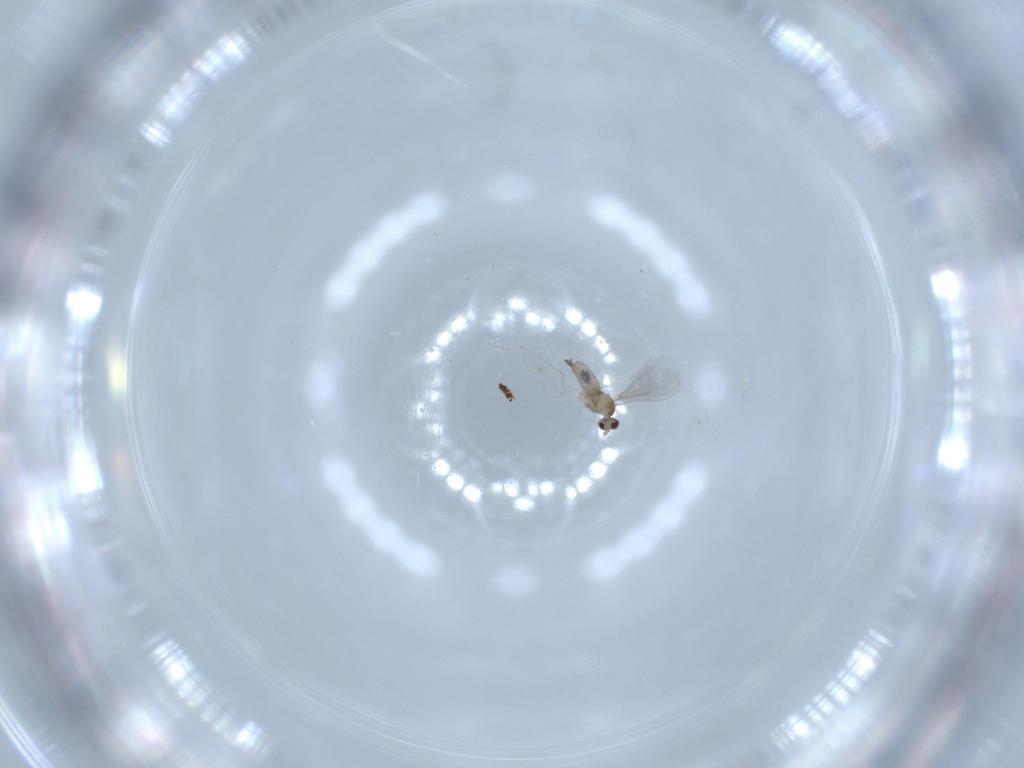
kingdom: Animalia
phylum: Arthropoda
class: Insecta
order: Diptera
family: Cecidomyiidae
